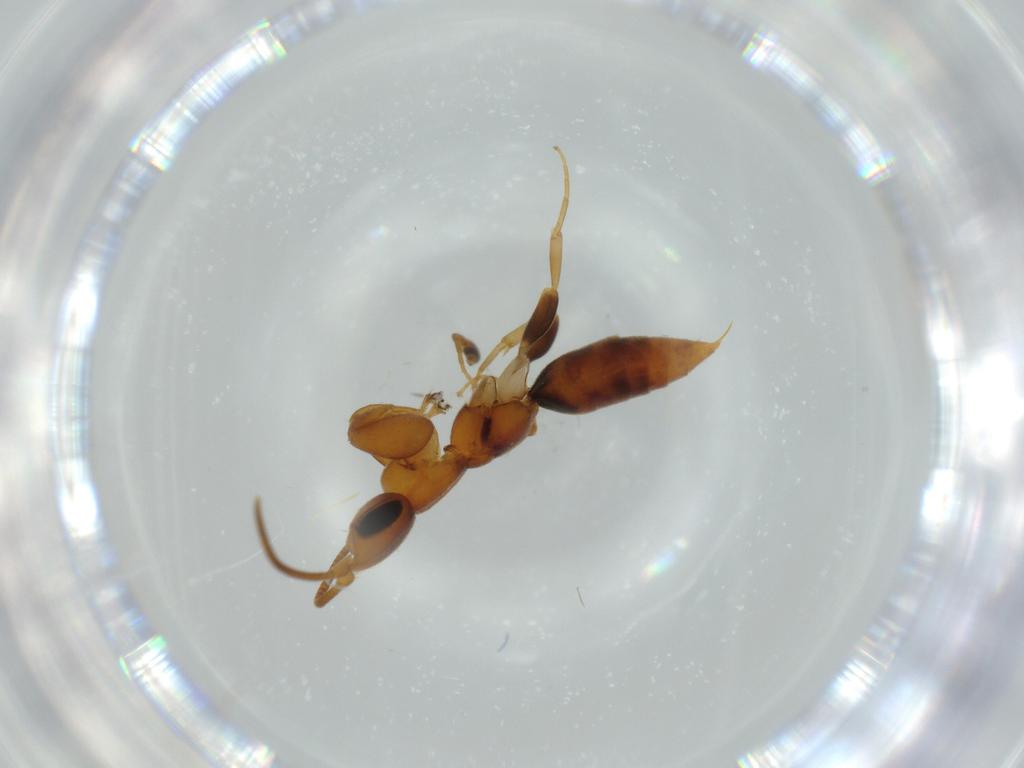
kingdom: Animalia
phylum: Arthropoda
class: Insecta
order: Hymenoptera
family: Sclerogibbidae
